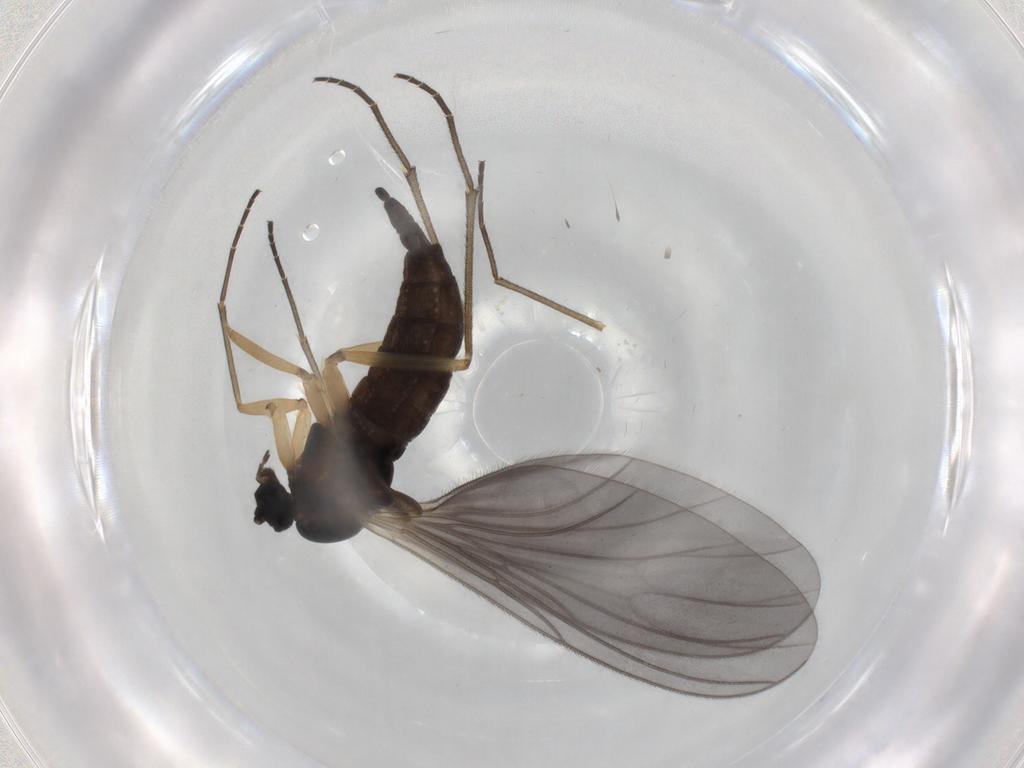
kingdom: Animalia
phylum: Arthropoda
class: Insecta
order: Diptera
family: Sciaridae
